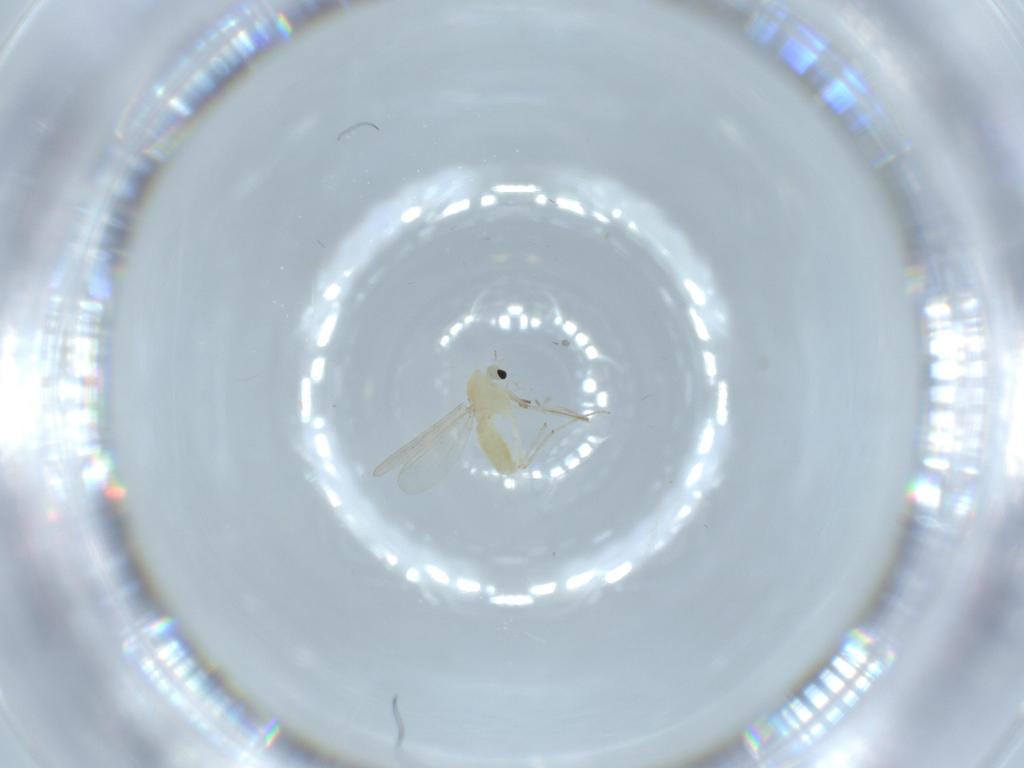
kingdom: Animalia
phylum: Arthropoda
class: Insecta
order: Diptera
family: Chironomidae
